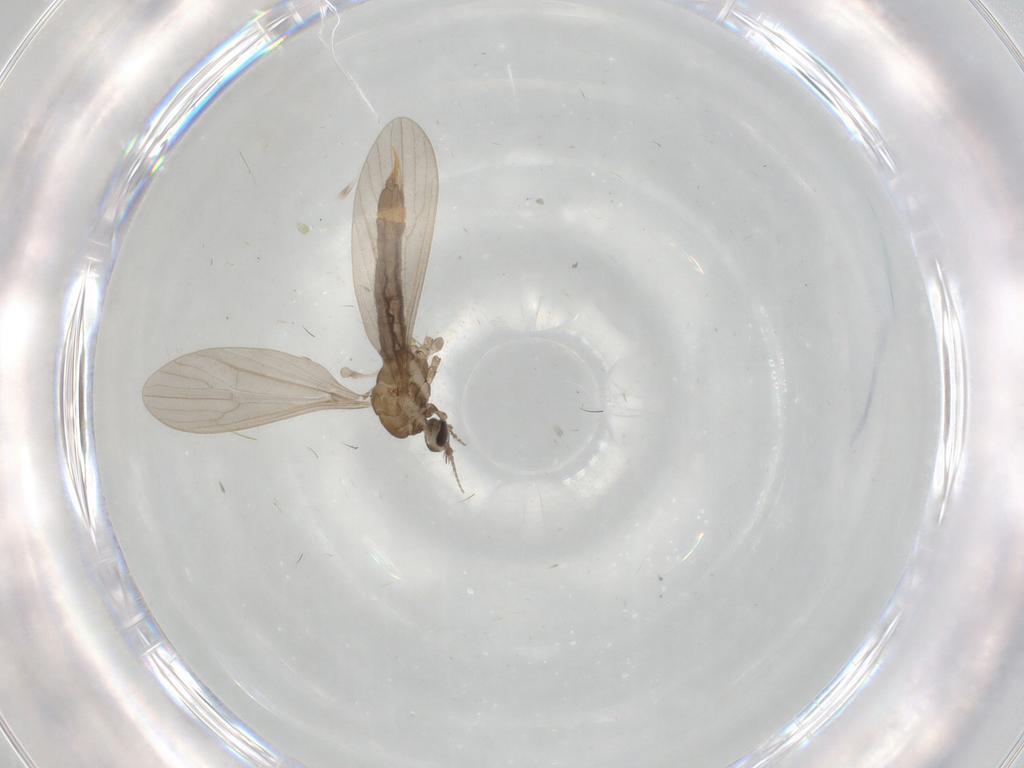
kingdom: Animalia
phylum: Arthropoda
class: Insecta
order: Diptera
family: Limoniidae
